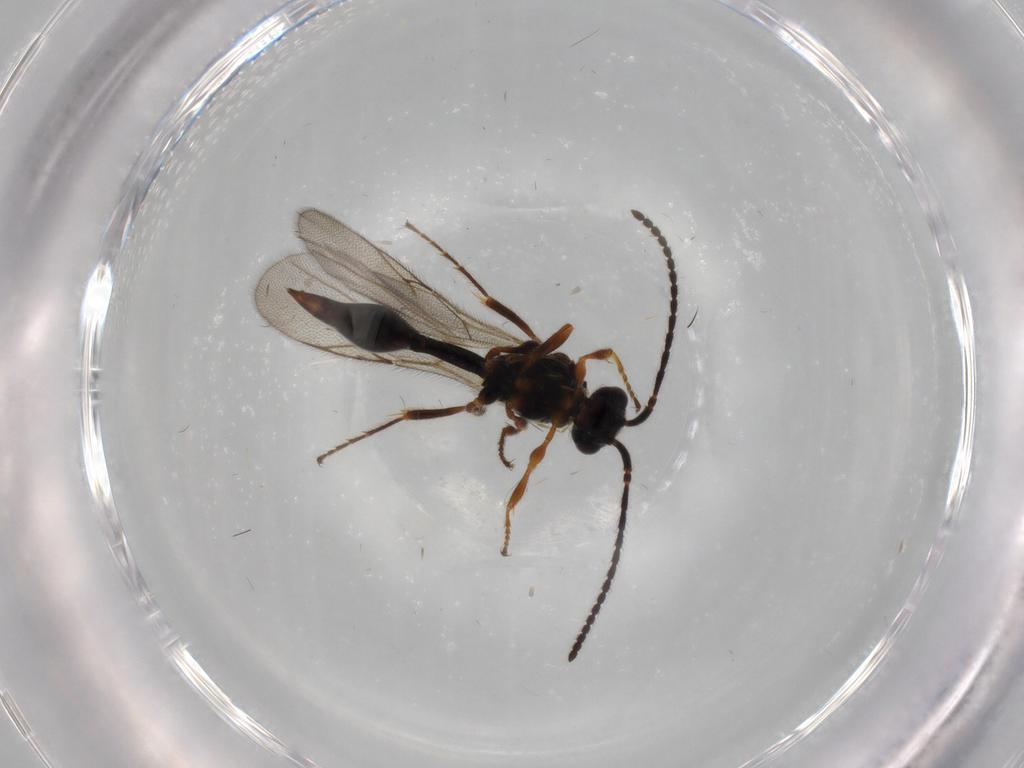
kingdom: Animalia
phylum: Arthropoda
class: Insecta
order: Hymenoptera
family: Diapriidae
